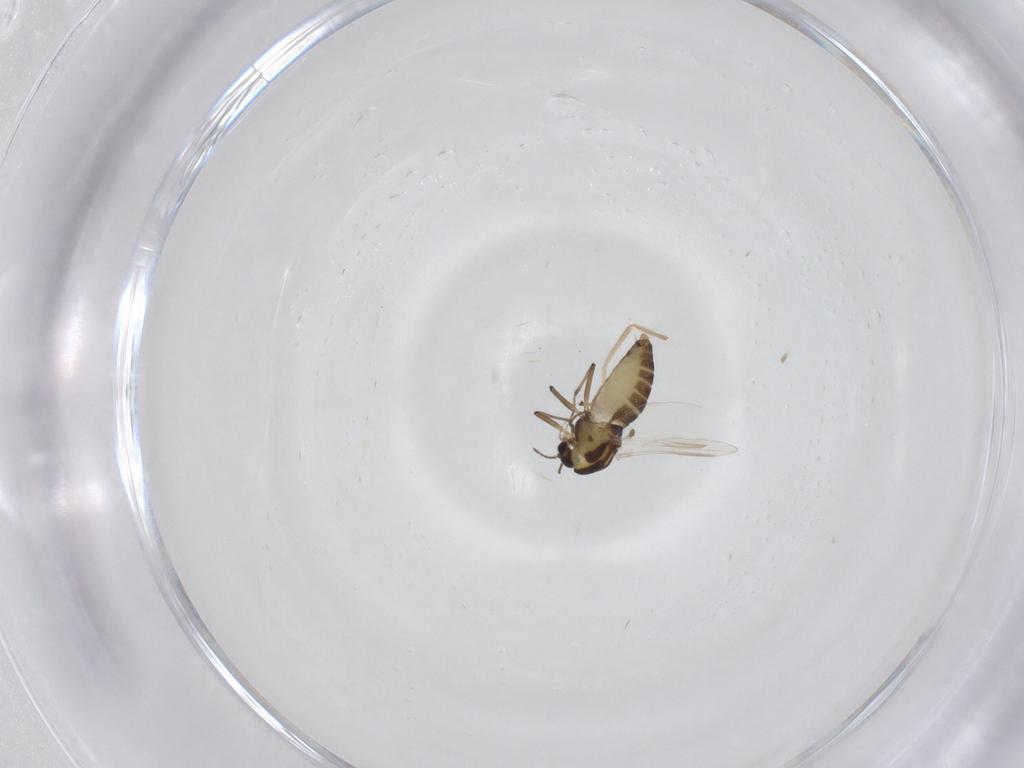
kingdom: Animalia
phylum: Arthropoda
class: Insecta
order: Diptera
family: Chironomidae
